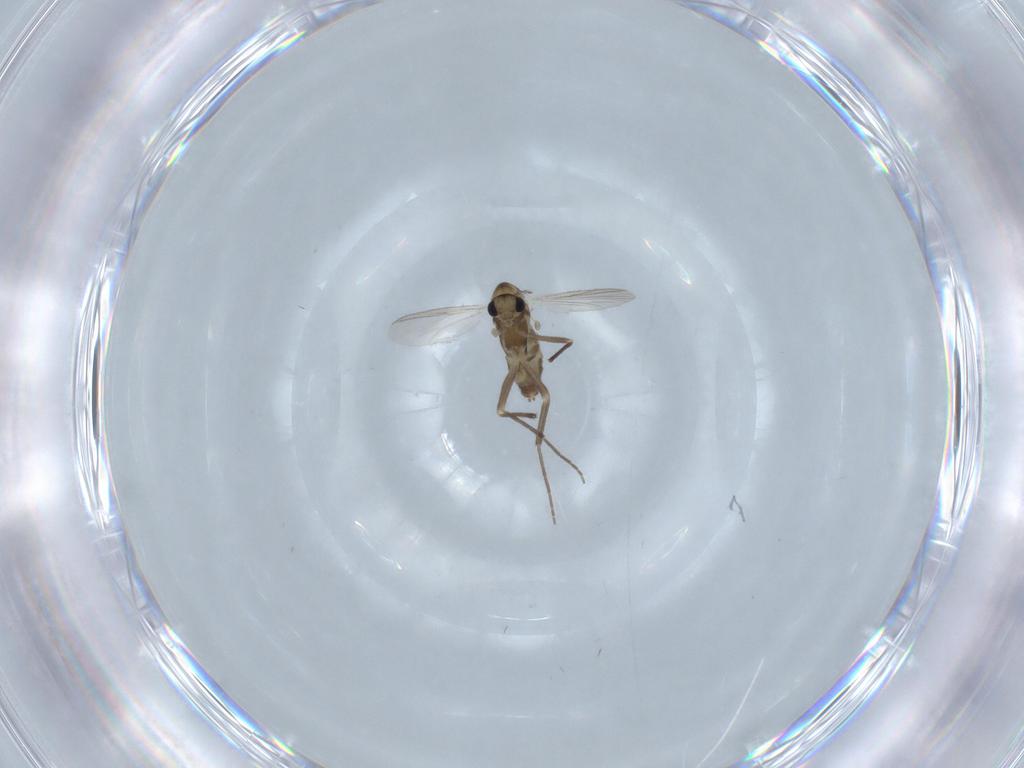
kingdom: Animalia
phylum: Arthropoda
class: Insecta
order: Diptera
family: Chironomidae
